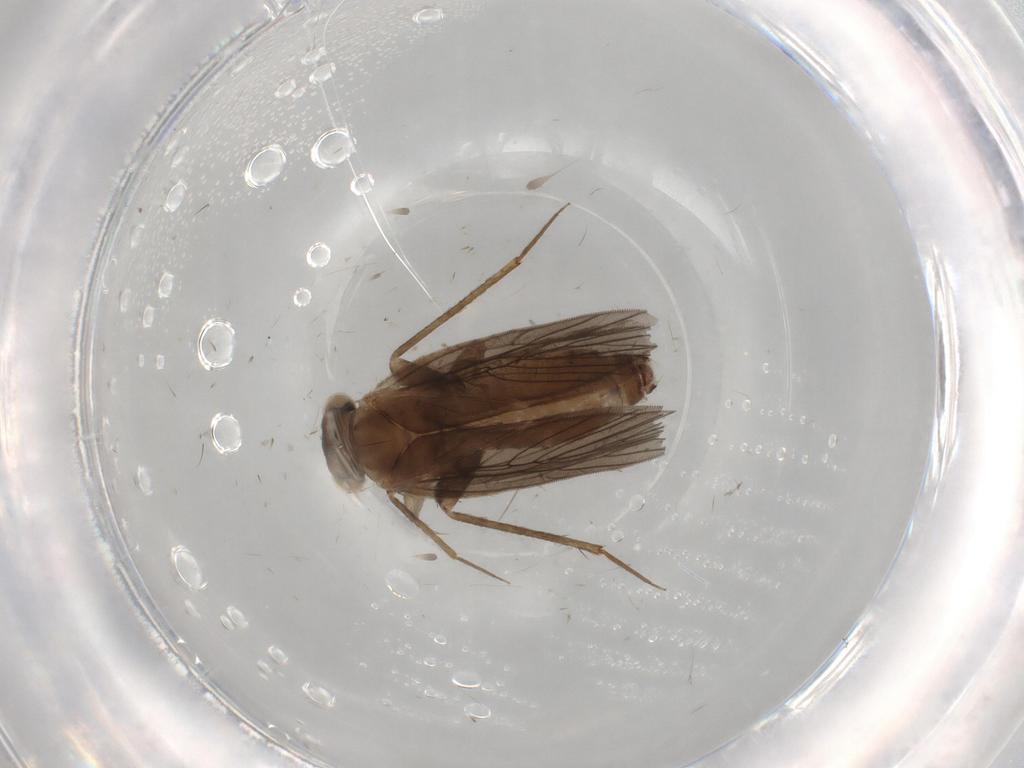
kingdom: Animalia
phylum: Arthropoda
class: Insecta
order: Psocodea
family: Lepidopsocidae
